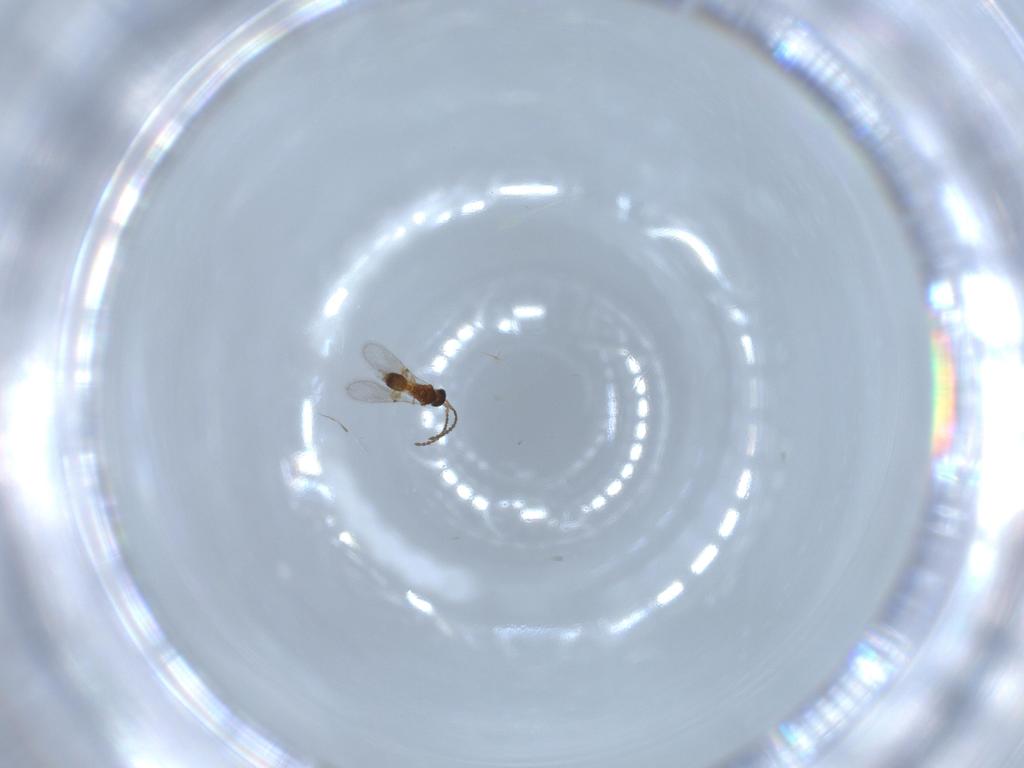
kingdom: Animalia
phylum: Arthropoda
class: Insecta
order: Hymenoptera
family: Diapriidae
